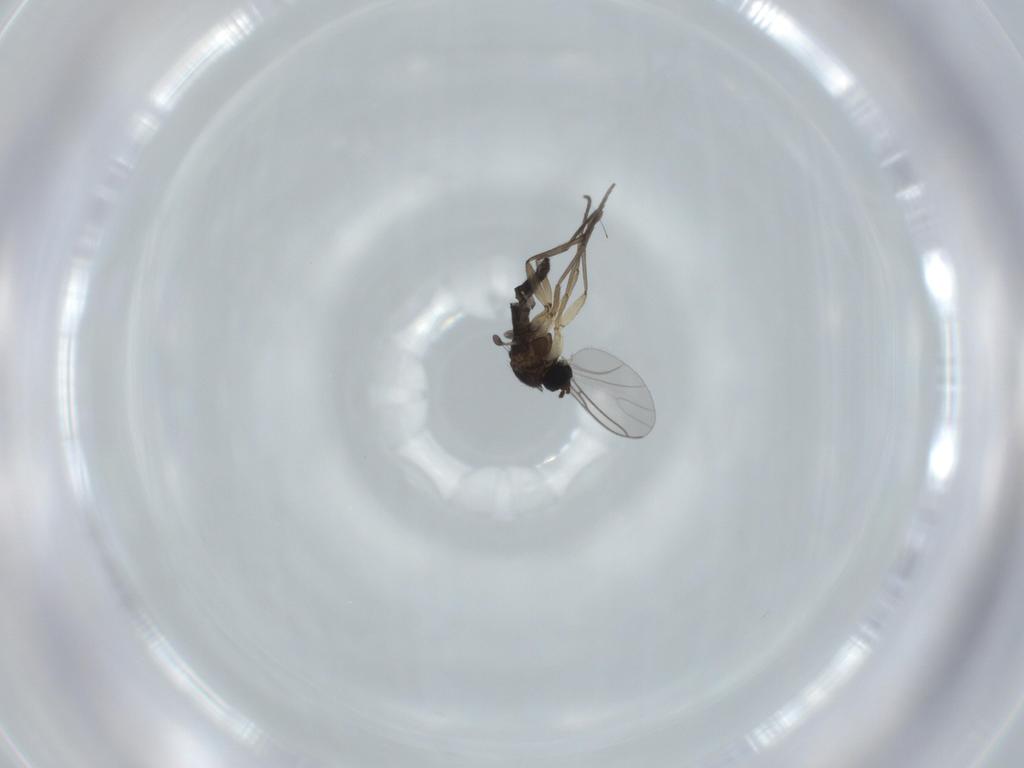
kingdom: Animalia
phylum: Arthropoda
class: Insecta
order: Diptera
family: Sciaridae
